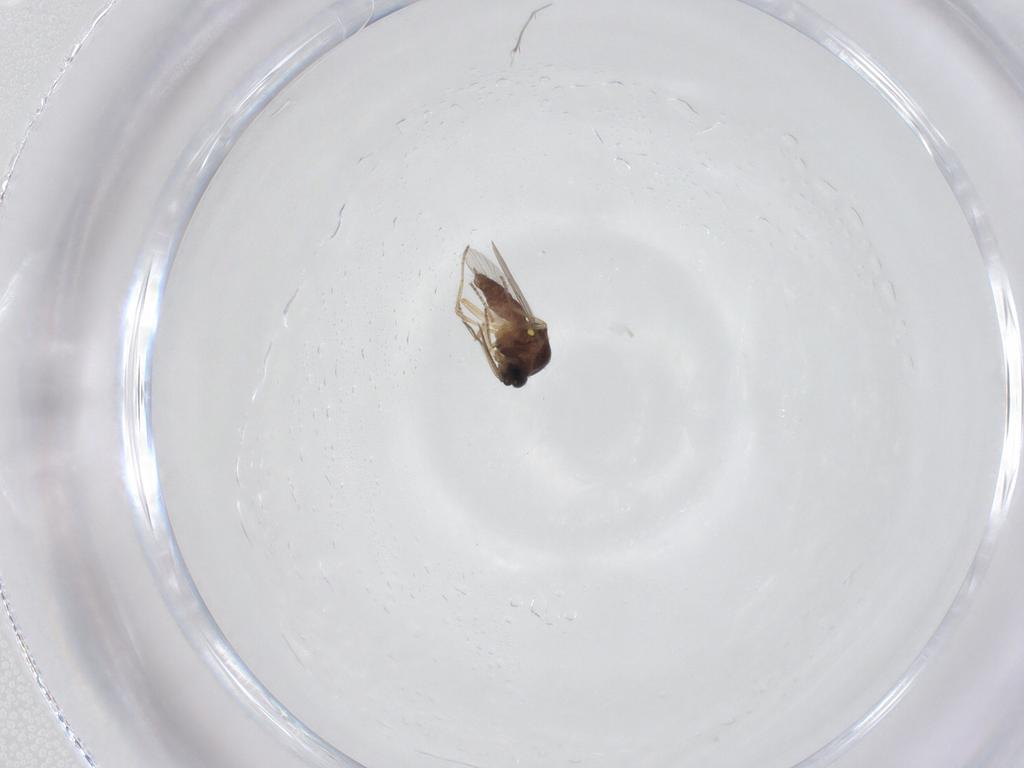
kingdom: Animalia
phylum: Arthropoda
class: Insecta
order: Diptera
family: Ceratopogonidae
